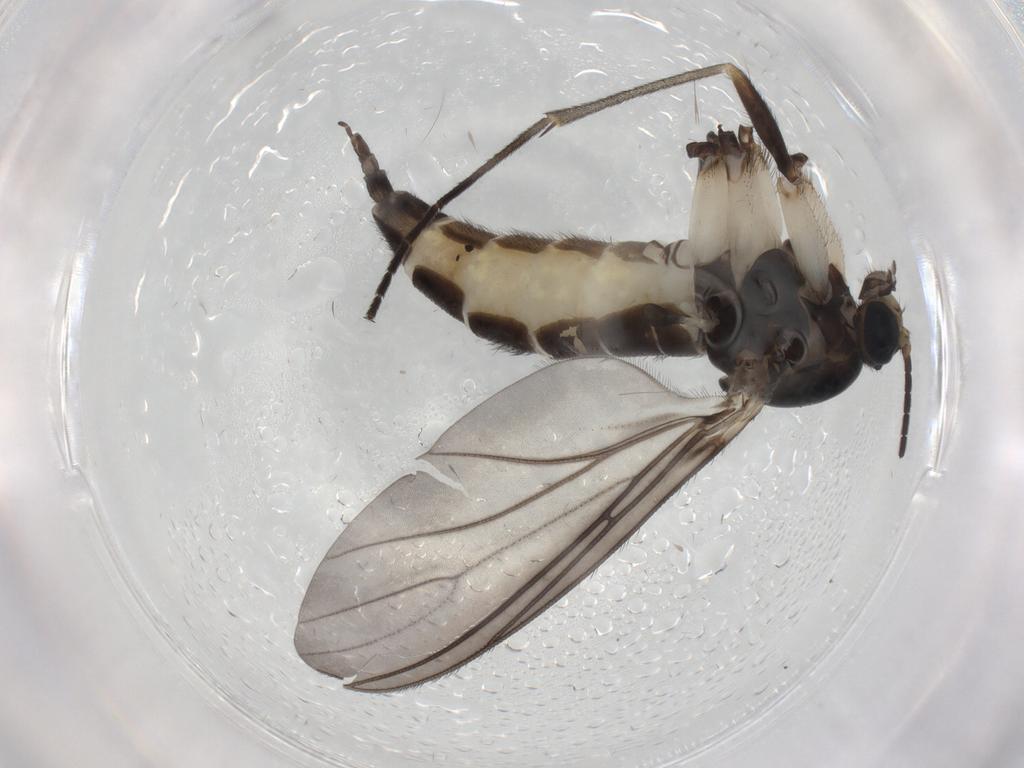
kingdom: Animalia
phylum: Arthropoda
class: Insecta
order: Diptera
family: Sciaridae
